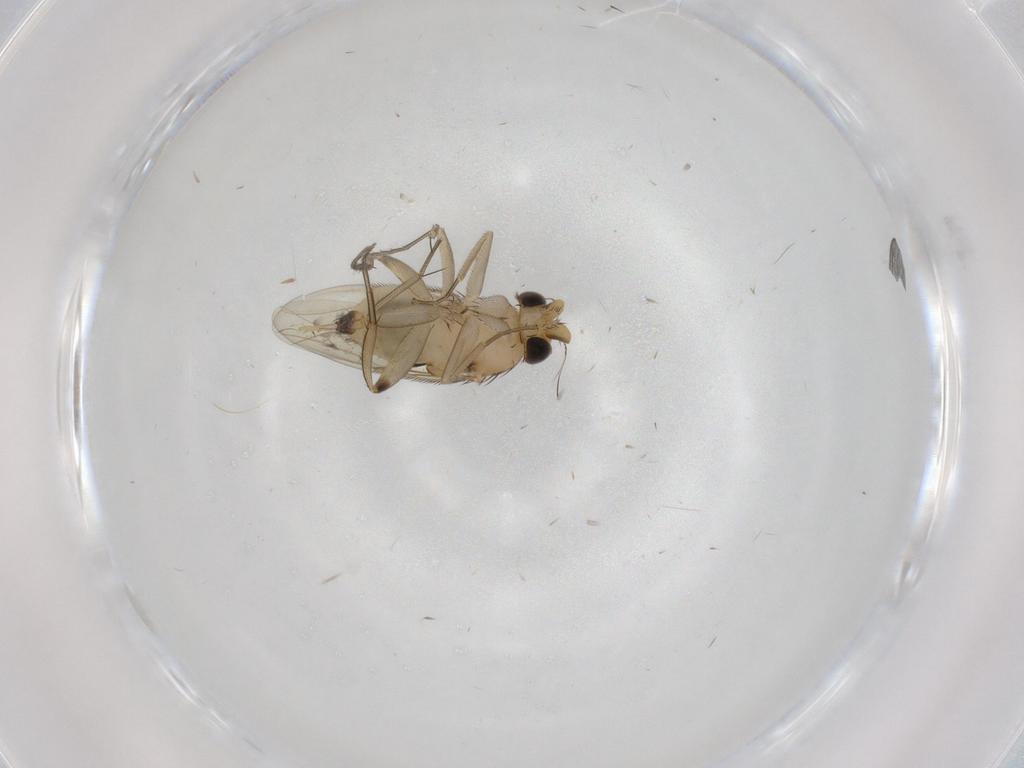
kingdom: Animalia
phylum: Arthropoda
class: Insecta
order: Diptera
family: Phoridae
